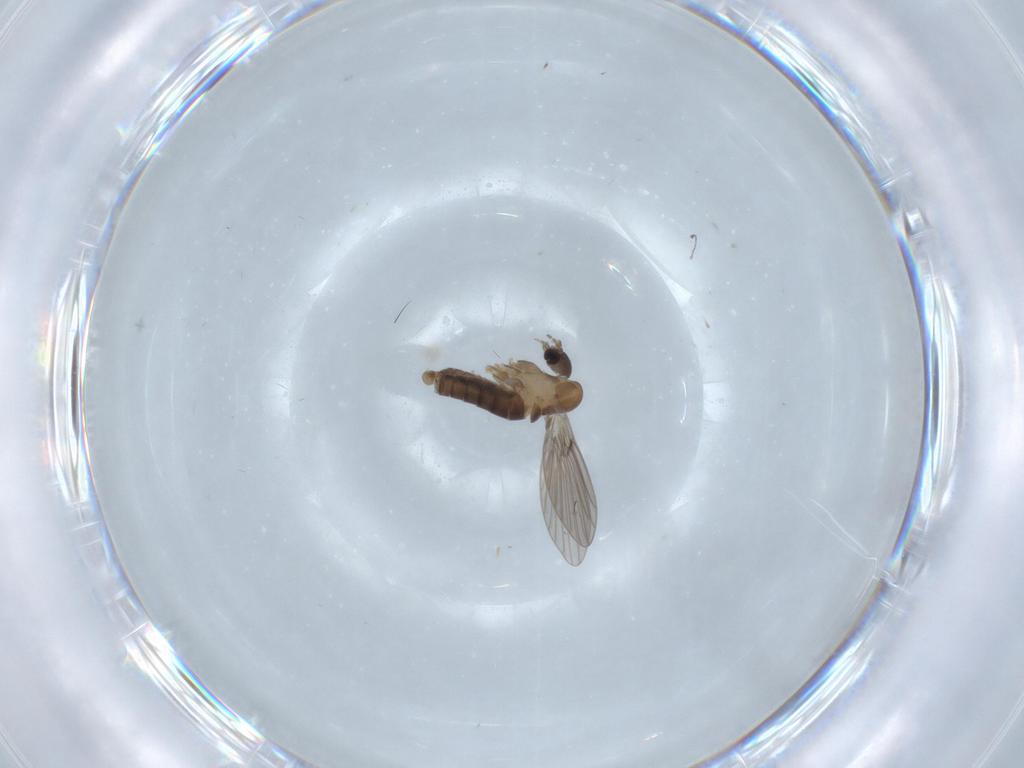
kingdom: Animalia
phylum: Arthropoda
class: Insecta
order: Diptera
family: Psychodidae
